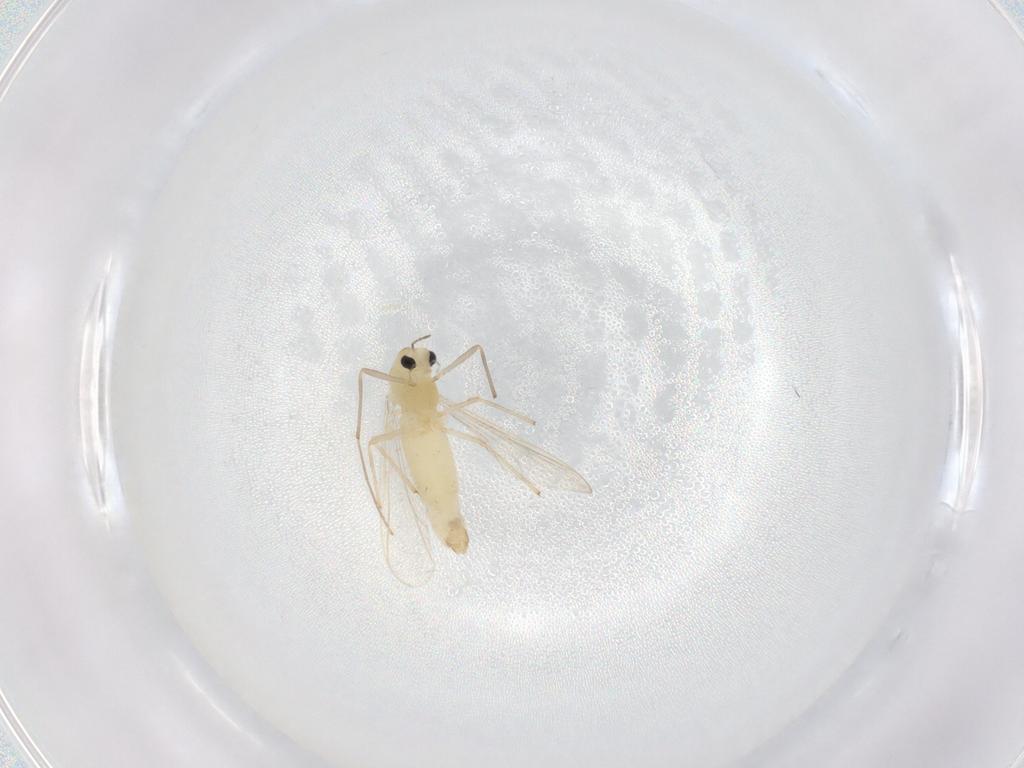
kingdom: Animalia
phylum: Arthropoda
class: Insecta
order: Diptera
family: Chironomidae
